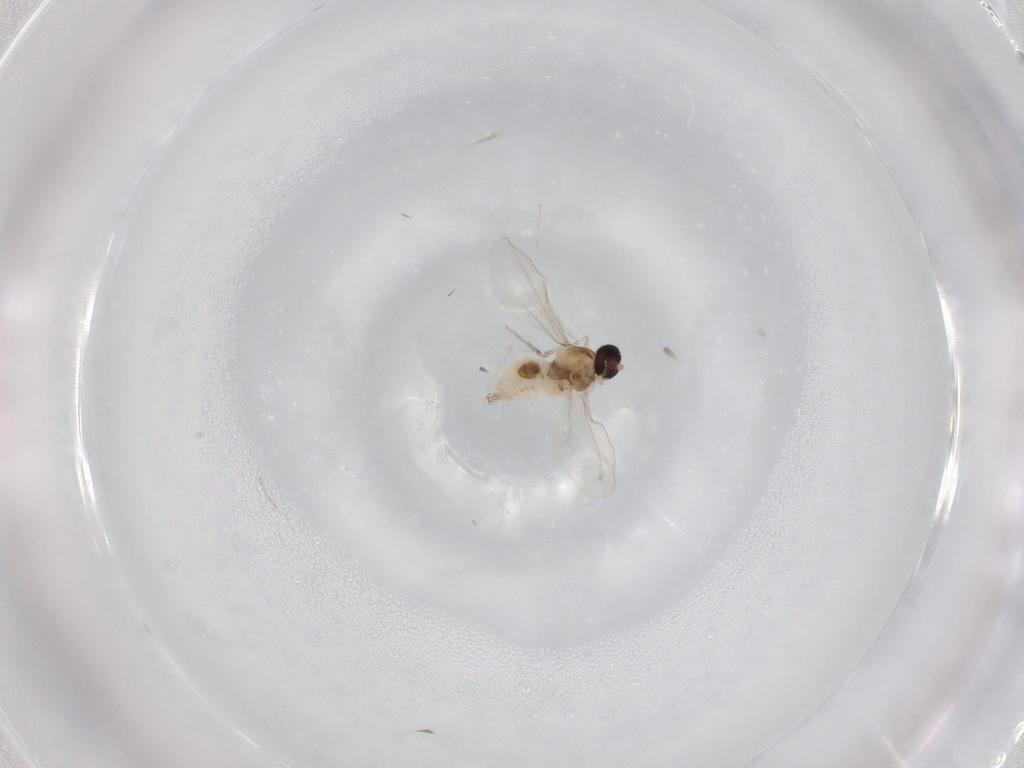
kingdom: Animalia
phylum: Arthropoda
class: Insecta
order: Diptera
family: Cecidomyiidae
